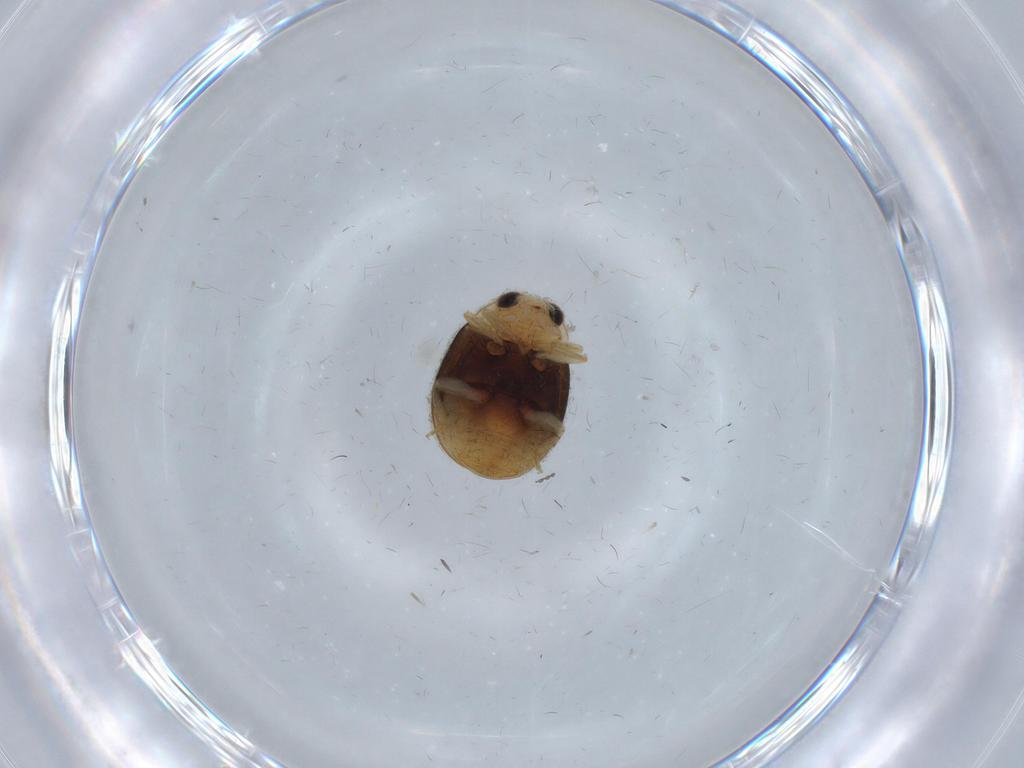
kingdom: Animalia
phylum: Arthropoda
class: Insecta
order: Coleoptera
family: Coccinellidae
